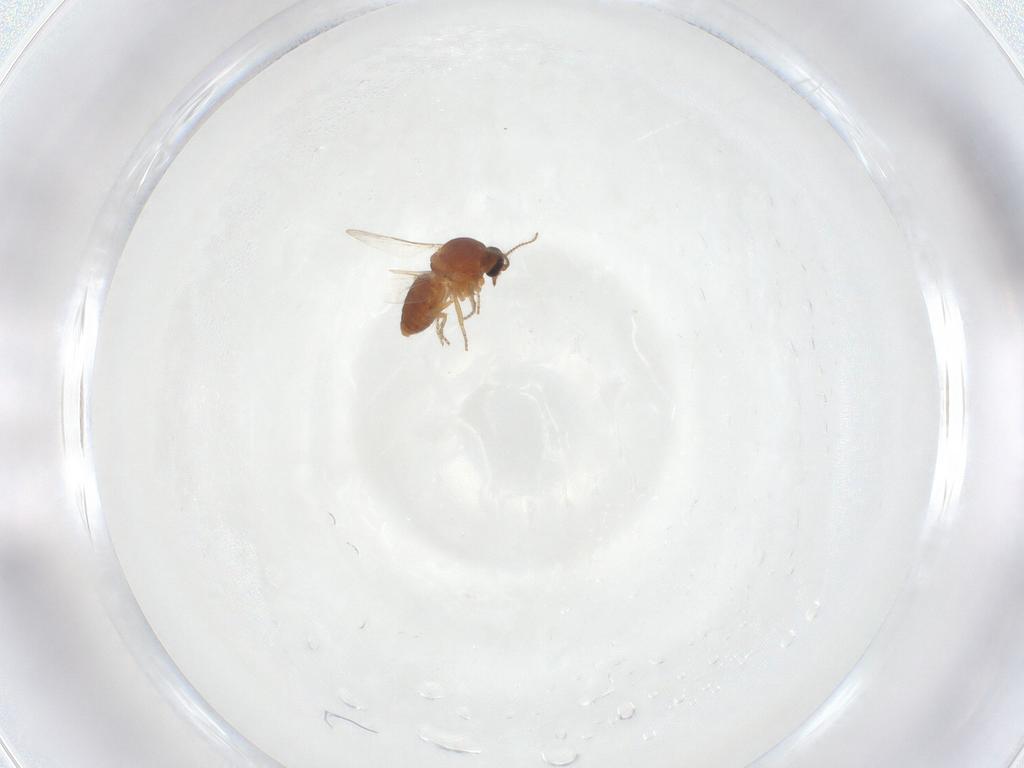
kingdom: Animalia
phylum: Arthropoda
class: Insecta
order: Diptera
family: Ceratopogonidae
